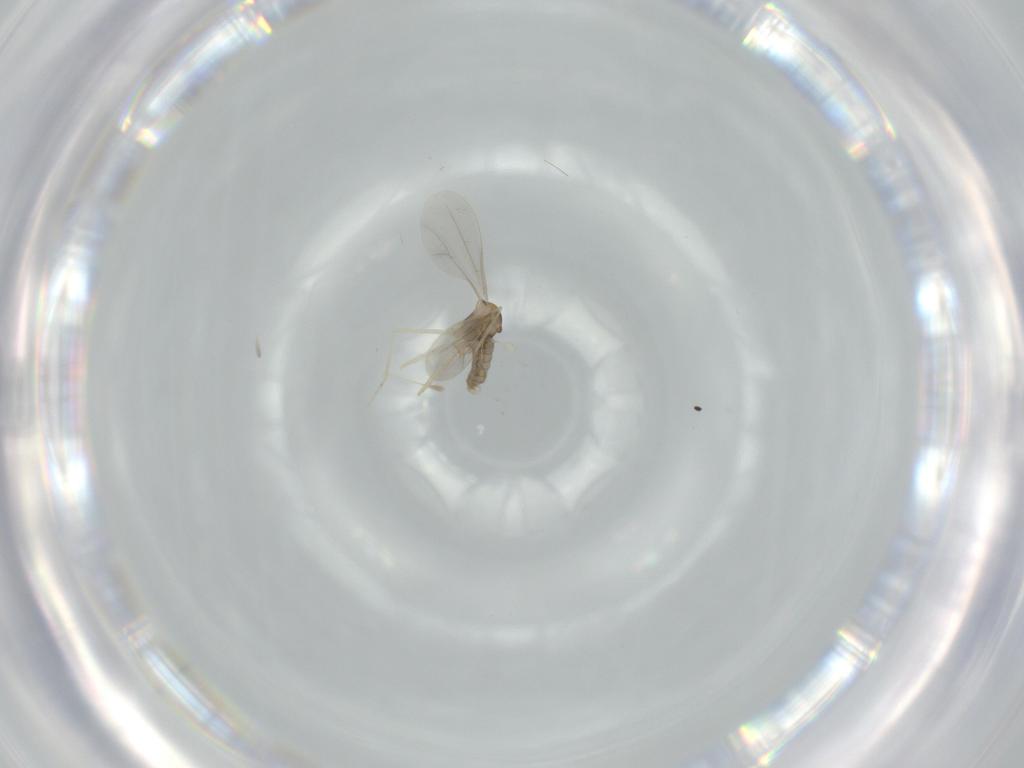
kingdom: Animalia
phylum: Arthropoda
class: Insecta
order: Diptera
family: Cecidomyiidae
